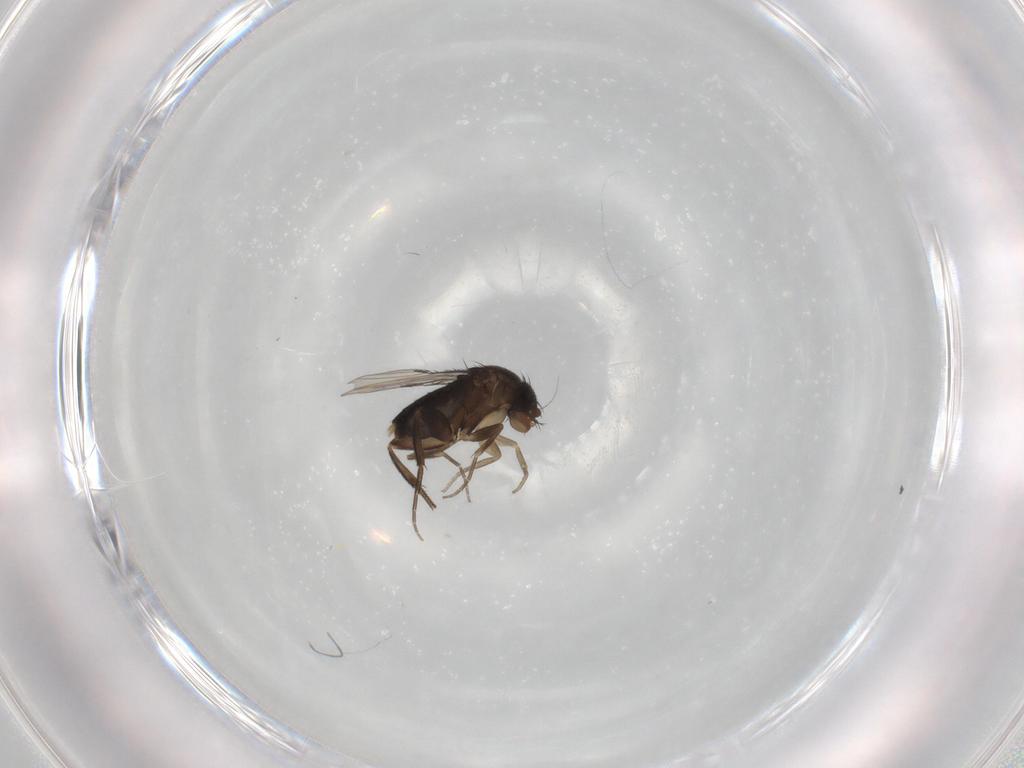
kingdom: Animalia
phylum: Arthropoda
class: Insecta
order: Diptera
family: Phoridae
